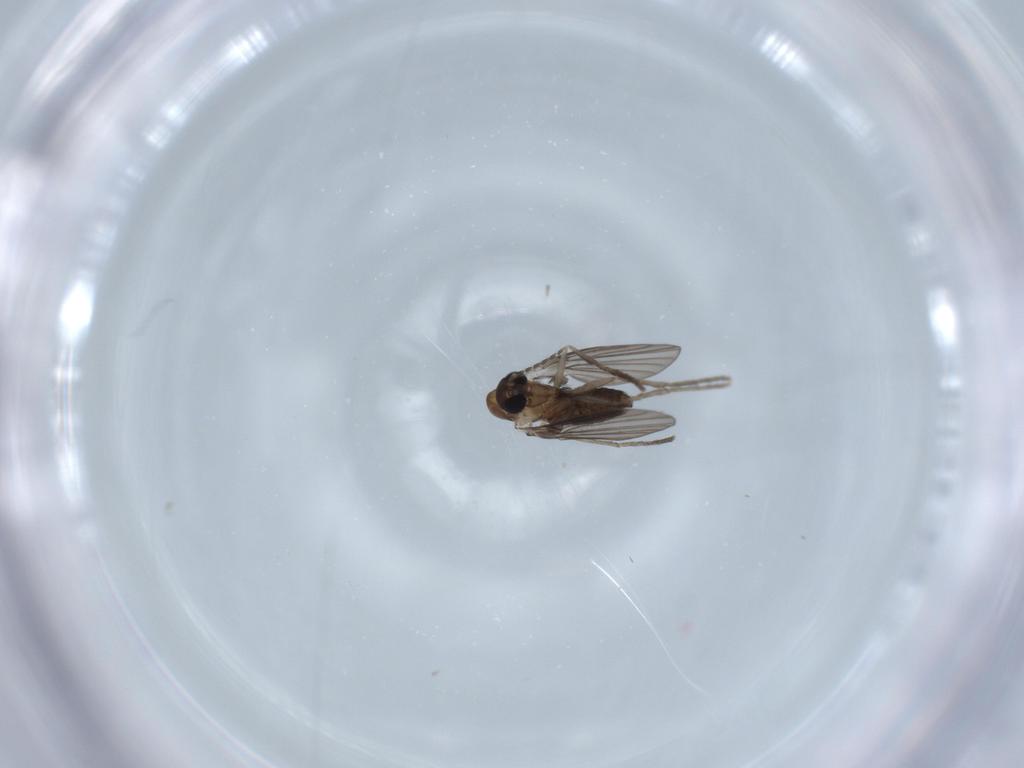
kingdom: Animalia
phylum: Arthropoda
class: Insecta
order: Diptera
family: Psychodidae
